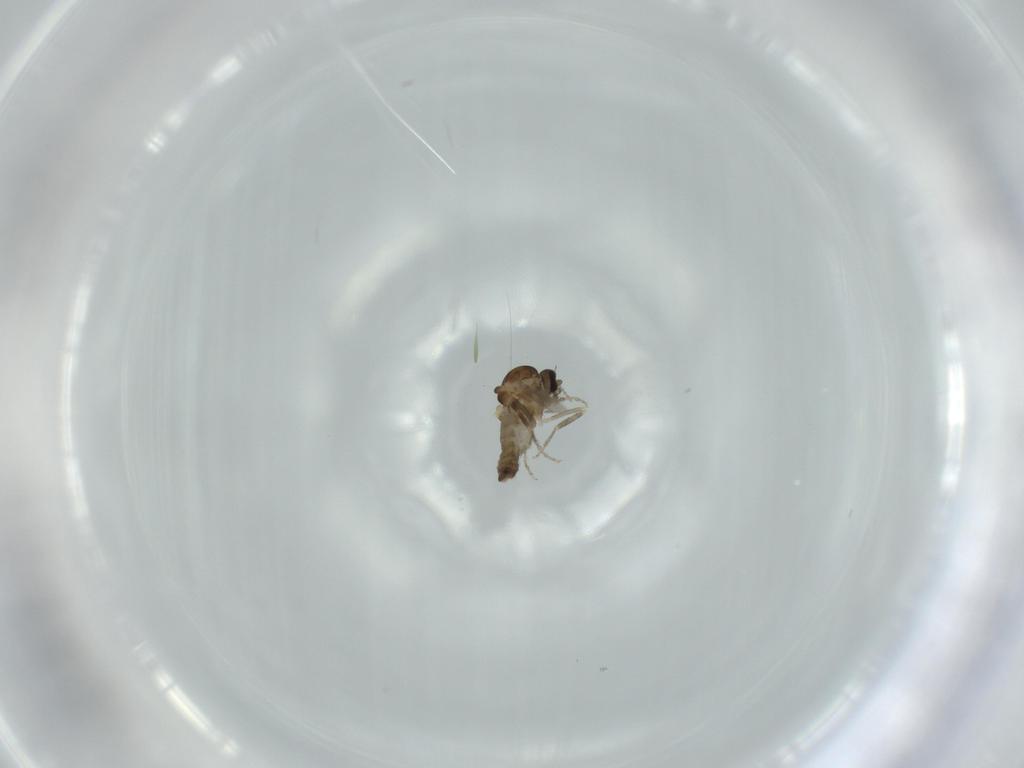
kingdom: Animalia
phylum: Arthropoda
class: Insecta
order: Diptera
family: Ceratopogonidae
